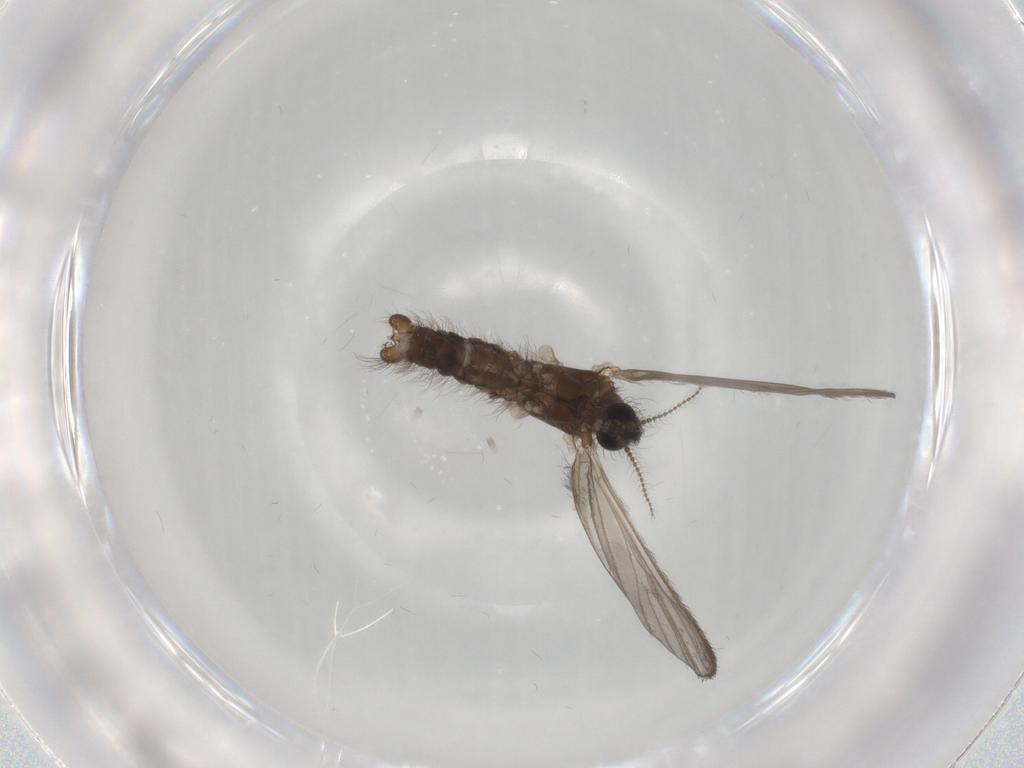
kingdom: Animalia
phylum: Arthropoda
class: Insecta
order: Diptera
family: Limoniidae
